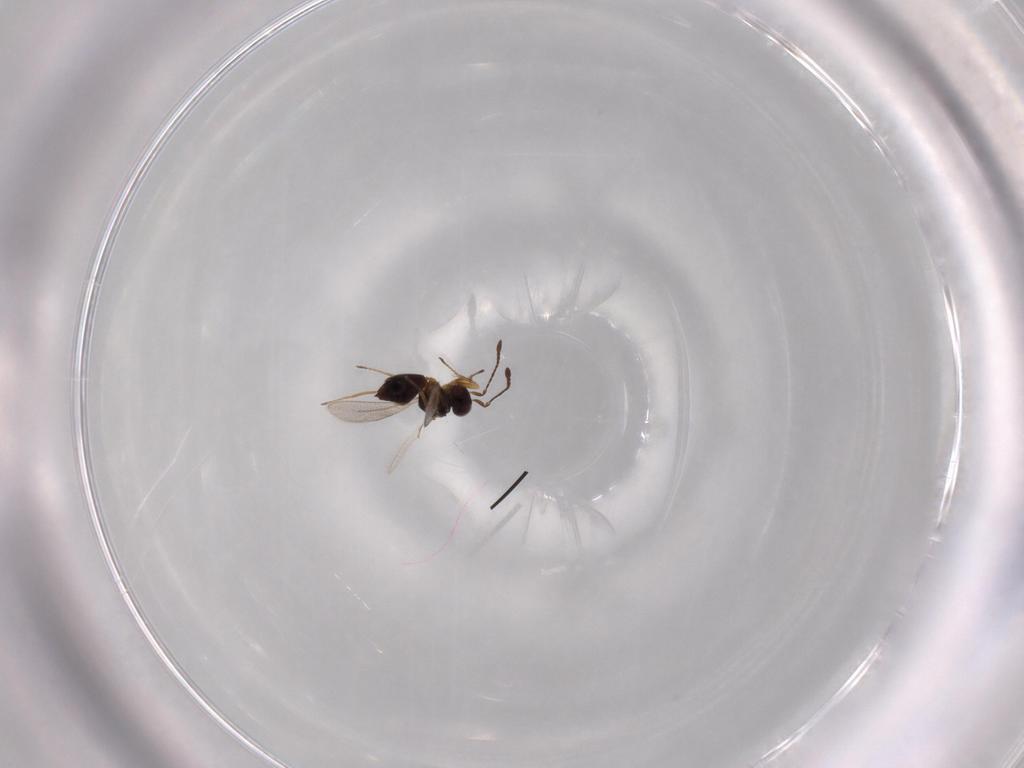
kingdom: Animalia
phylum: Arthropoda
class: Insecta
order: Hymenoptera
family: Mymaridae
